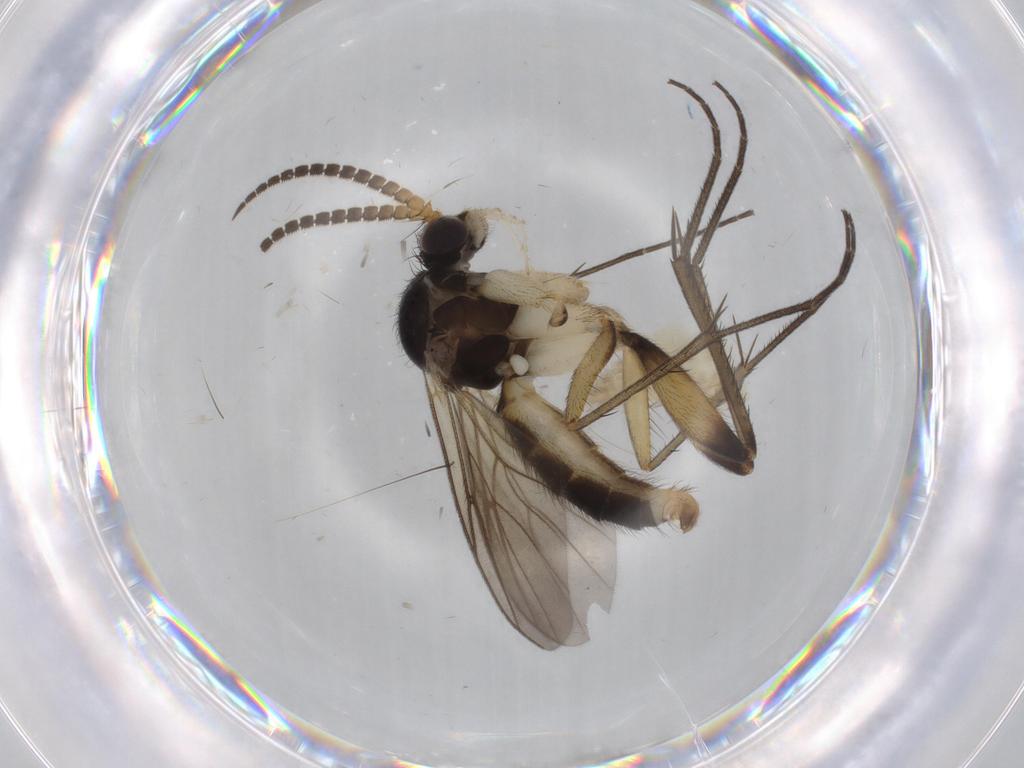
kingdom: Animalia
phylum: Arthropoda
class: Insecta
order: Diptera
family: Sciaridae
